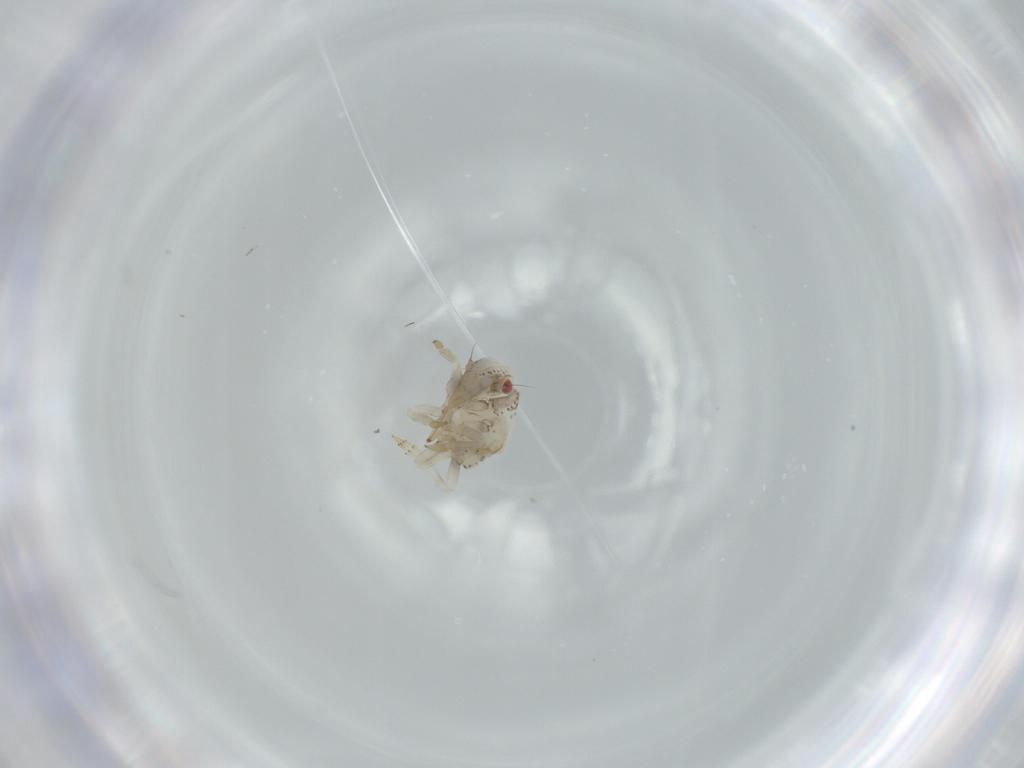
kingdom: Animalia
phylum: Arthropoda
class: Insecta
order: Hemiptera
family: Acanaloniidae
